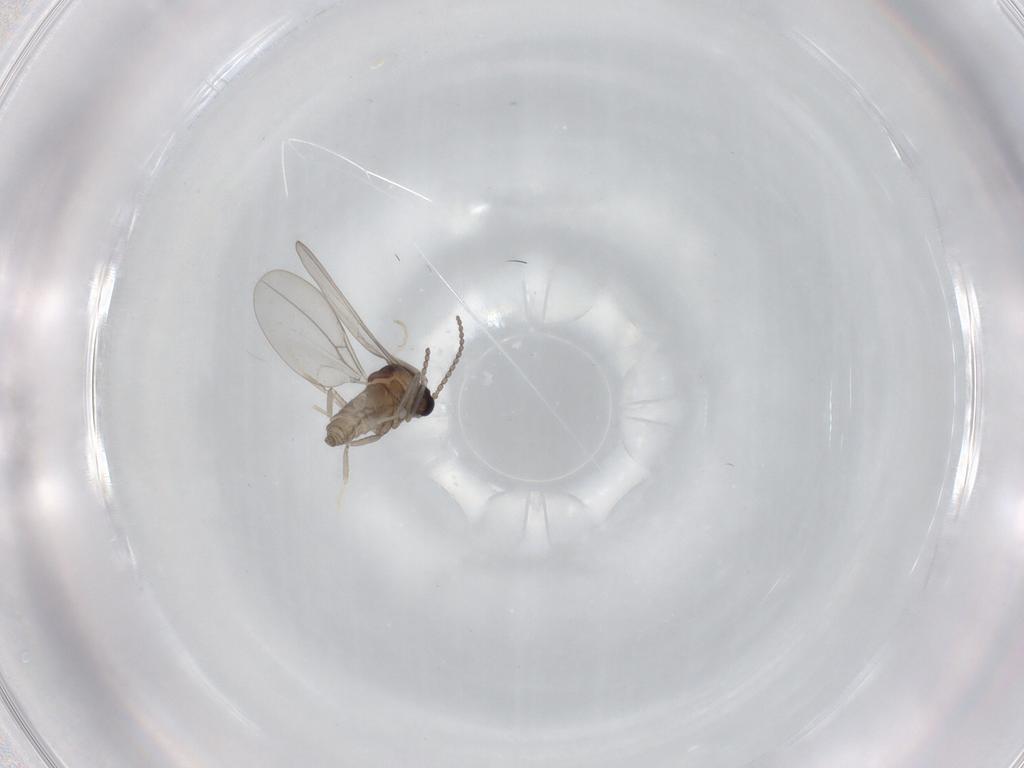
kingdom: Animalia
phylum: Arthropoda
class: Insecta
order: Diptera
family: Cecidomyiidae
